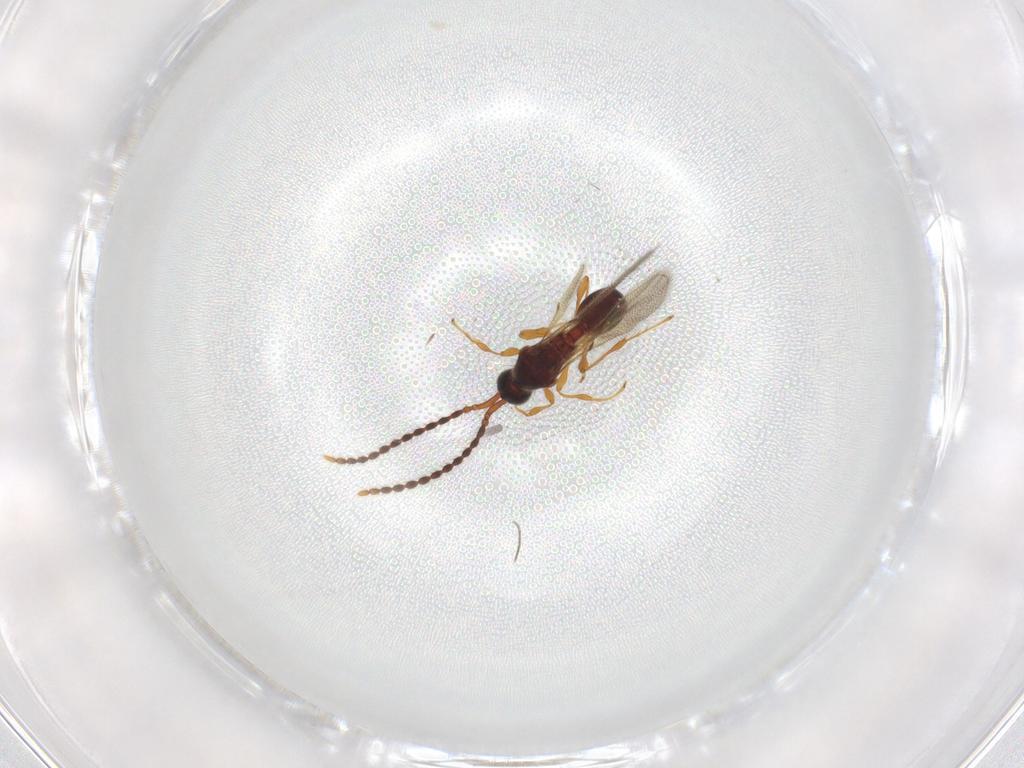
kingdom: Animalia
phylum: Arthropoda
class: Insecta
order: Hymenoptera
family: Diapriidae
